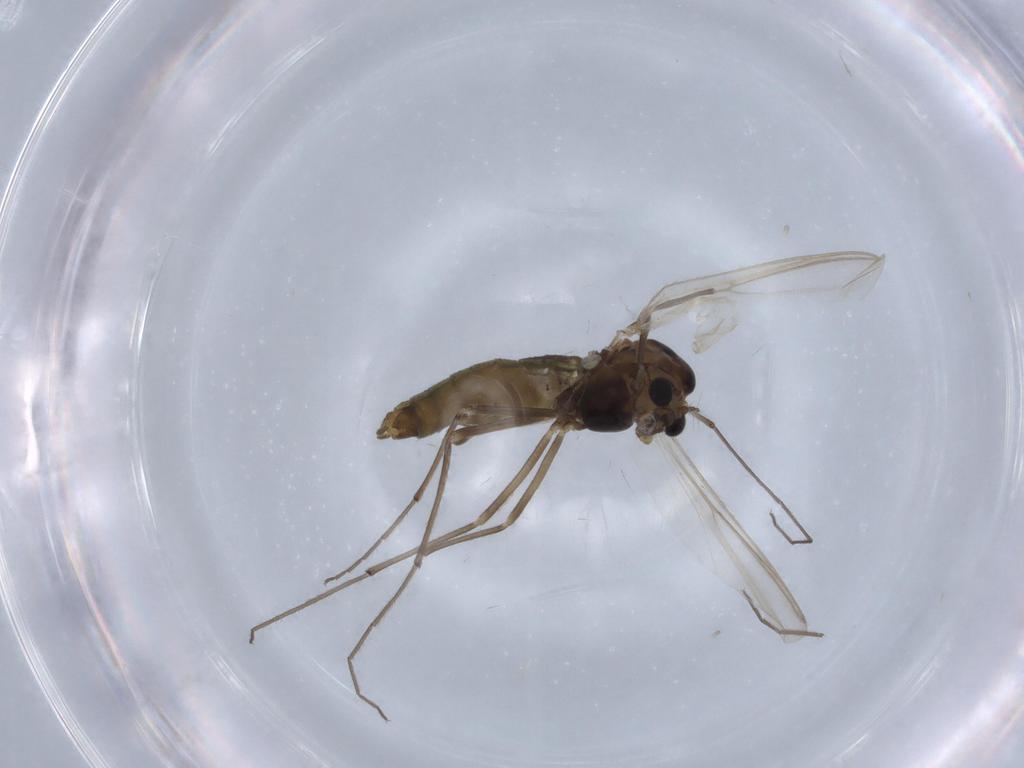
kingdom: Animalia
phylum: Arthropoda
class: Insecta
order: Diptera
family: Chironomidae
